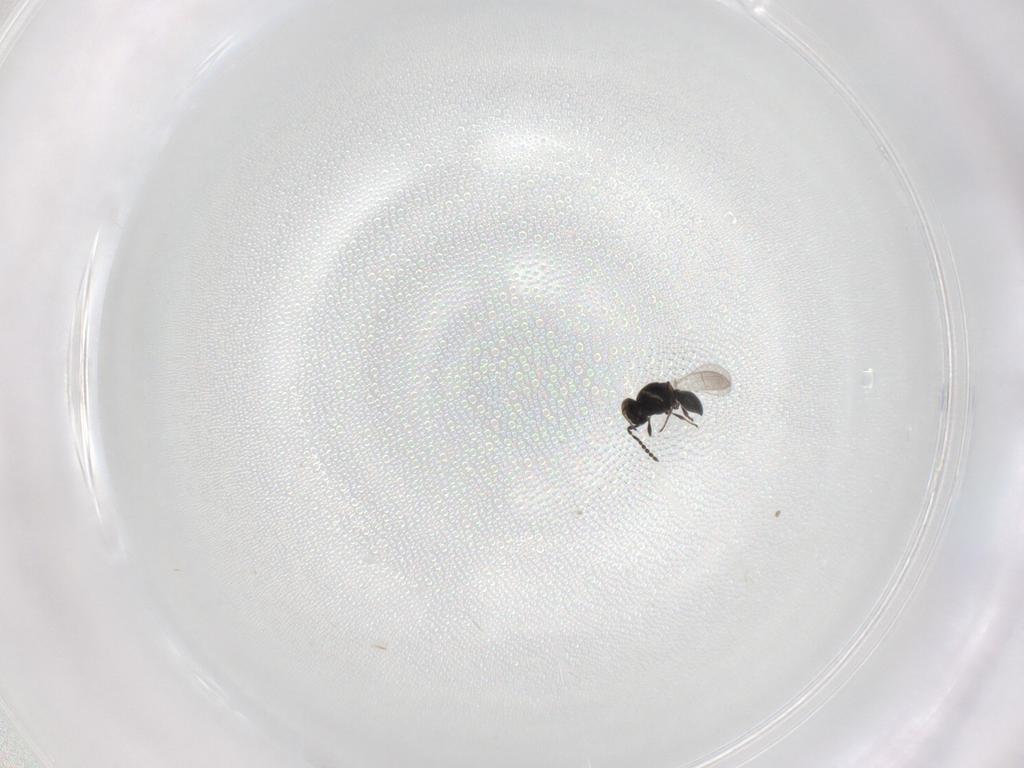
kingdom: Animalia
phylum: Arthropoda
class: Insecta
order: Hymenoptera
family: Platygastridae
